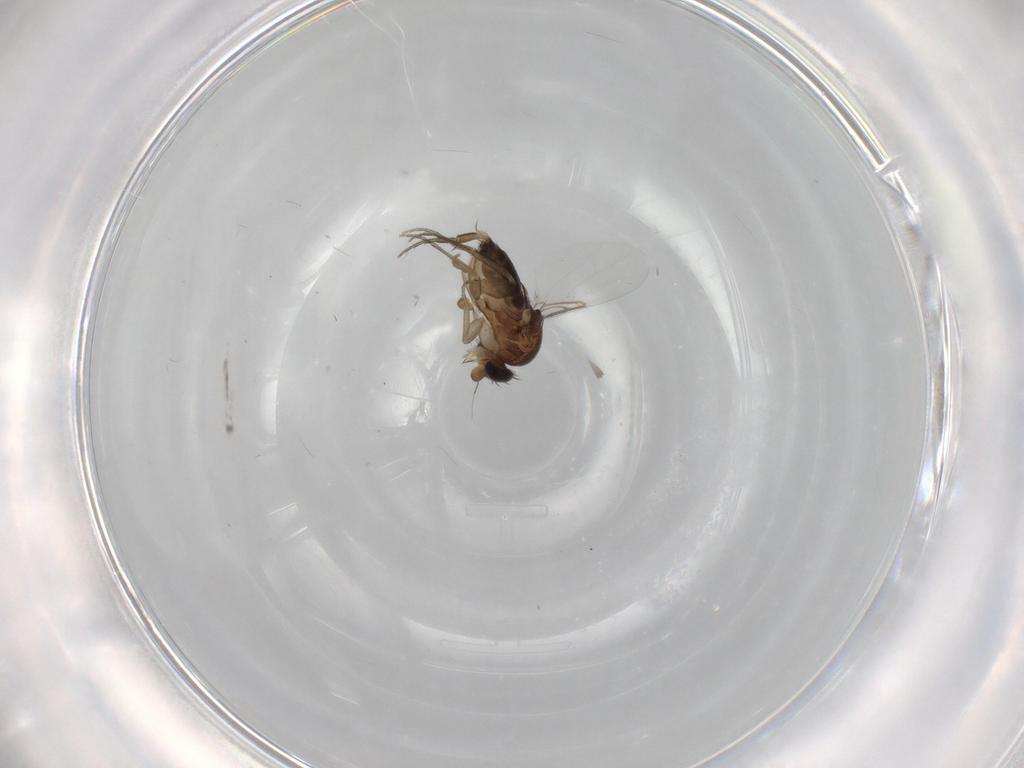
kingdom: Animalia
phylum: Arthropoda
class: Insecta
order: Diptera
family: Phoridae
